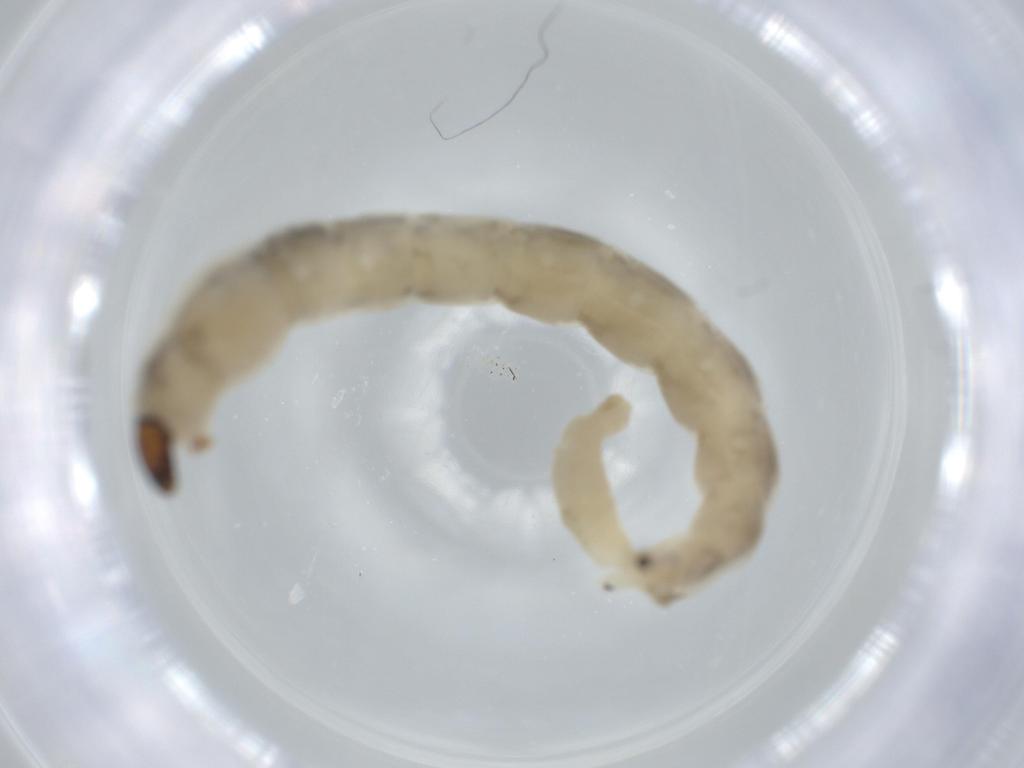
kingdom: Animalia
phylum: Arthropoda
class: Insecta
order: Diptera
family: Chironomidae
